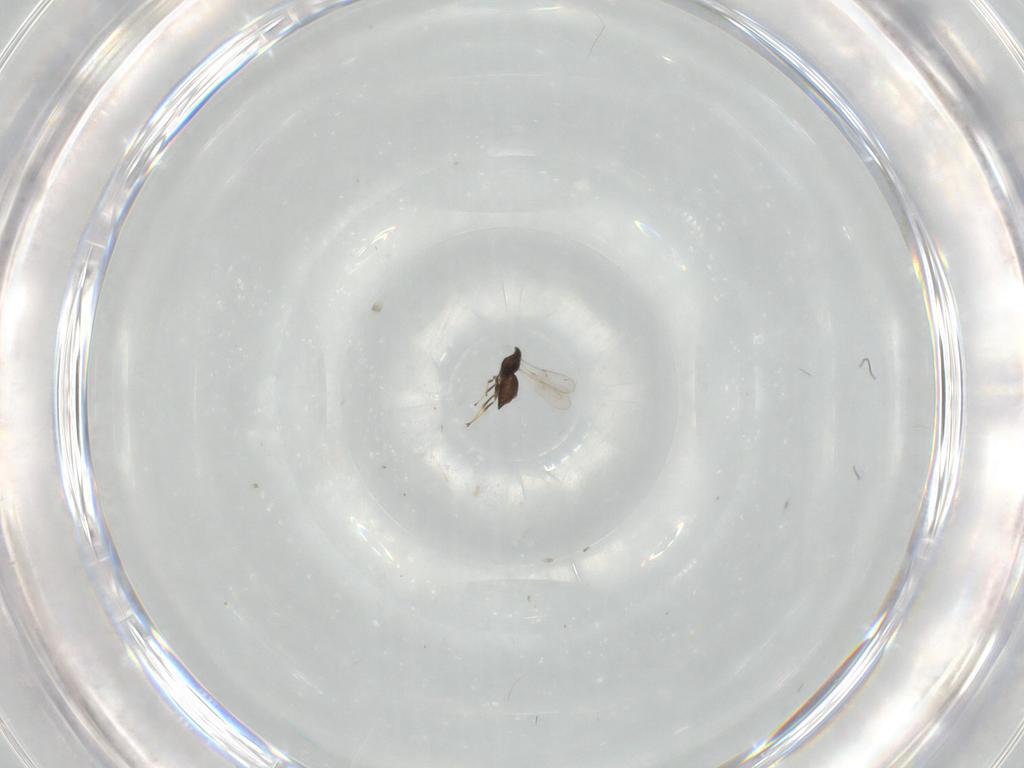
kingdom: Animalia
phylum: Arthropoda
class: Insecta
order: Hymenoptera
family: Scelionidae
